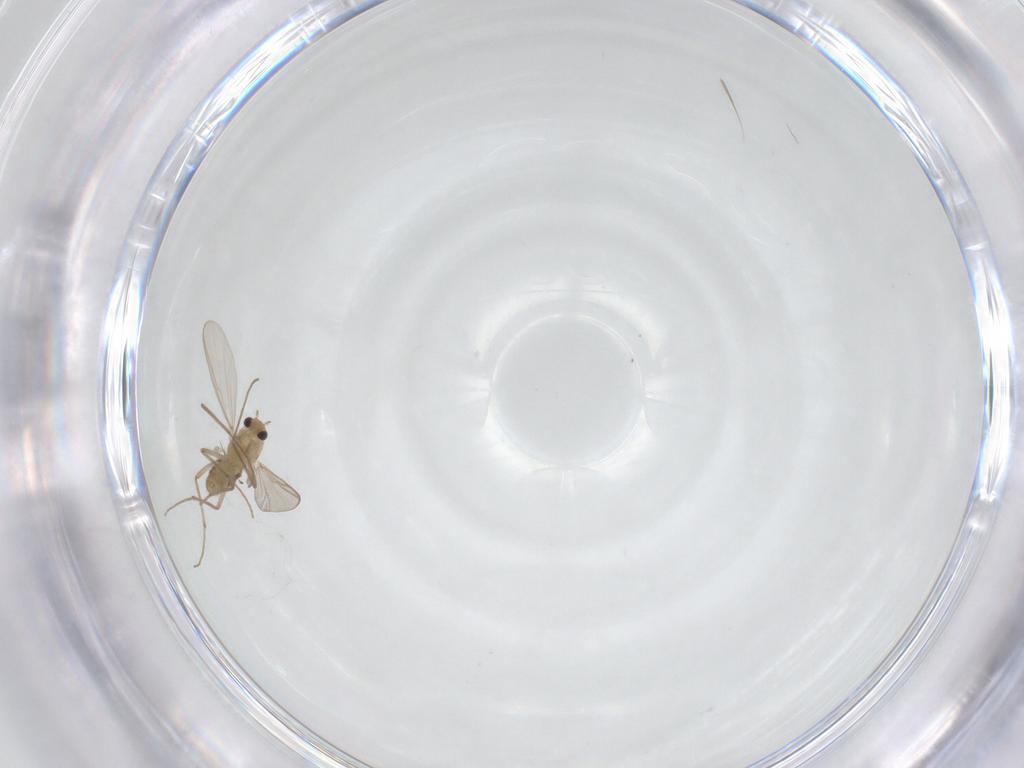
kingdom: Animalia
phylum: Arthropoda
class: Insecta
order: Diptera
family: Chironomidae
